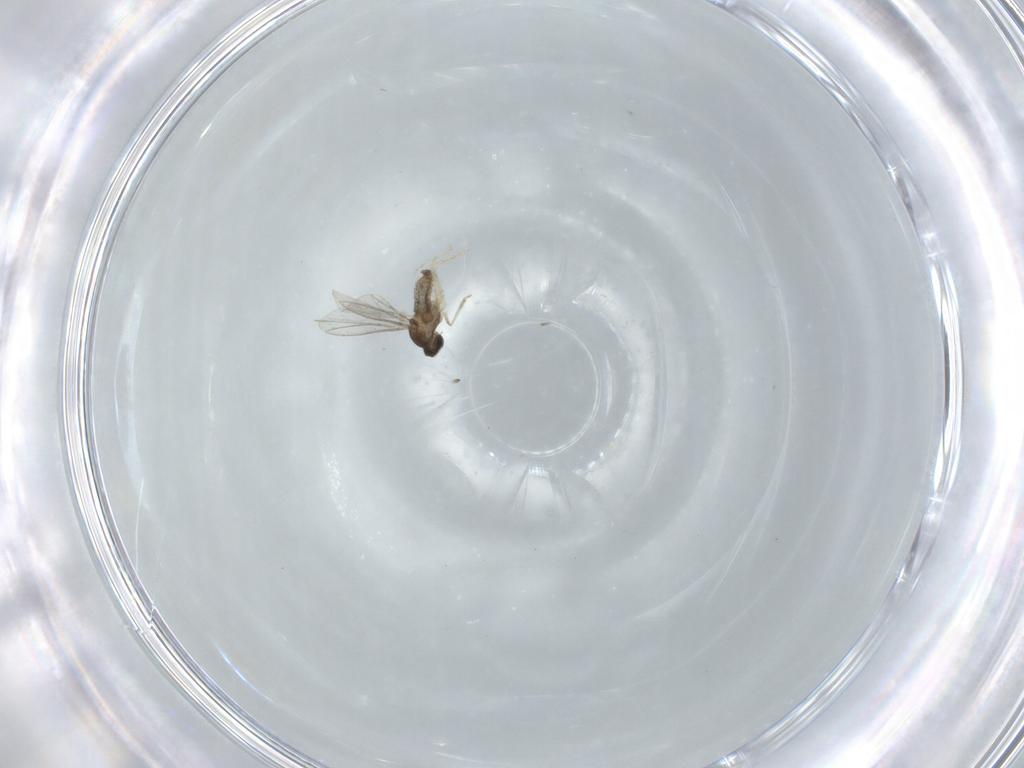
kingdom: Animalia
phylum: Arthropoda
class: Insecta
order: Diptera
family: Cecidomyiidae
